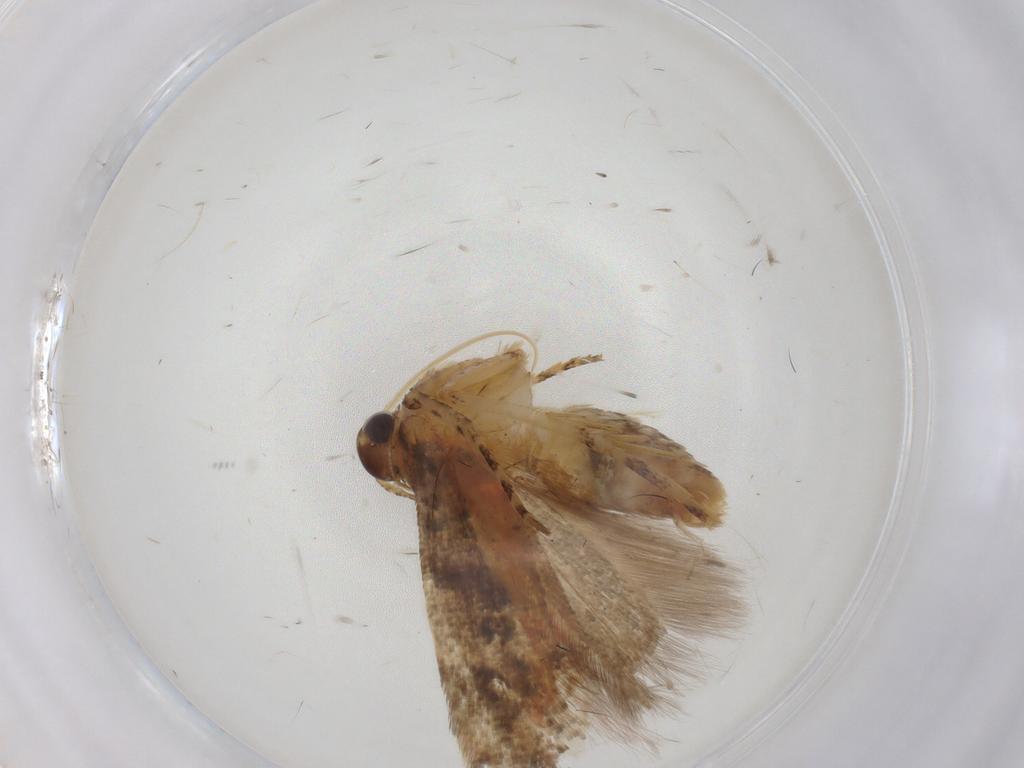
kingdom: Animalia
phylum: Arthropoda
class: Insecta
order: Lepidoptera
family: Gelechiidae
